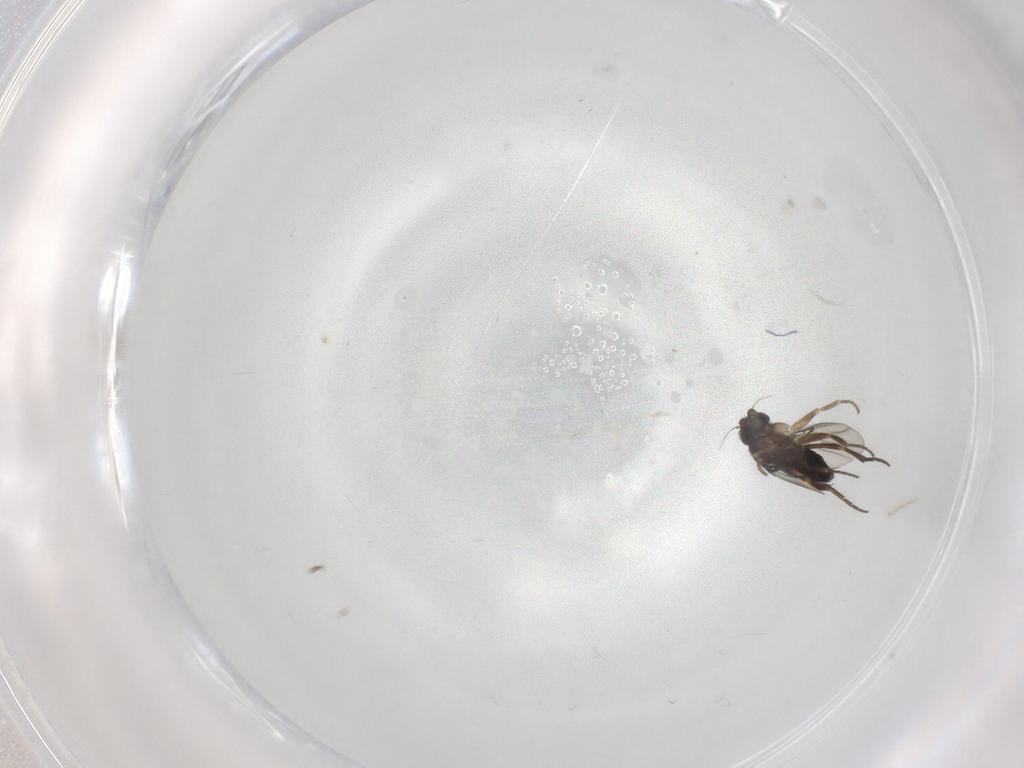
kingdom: Animalia
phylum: Arthropoda
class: Insecta
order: Diptera
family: Phoridae
